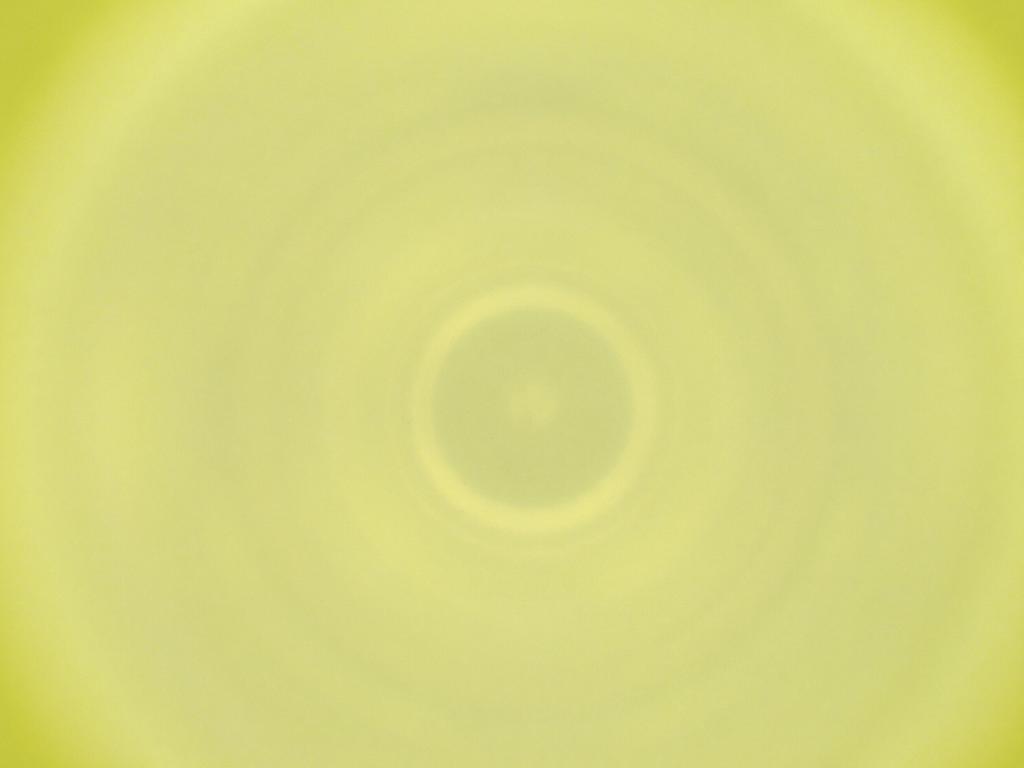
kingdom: Animalia
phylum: Arthropoda
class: Insecta
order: Diptera
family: Cecidomyiidae
